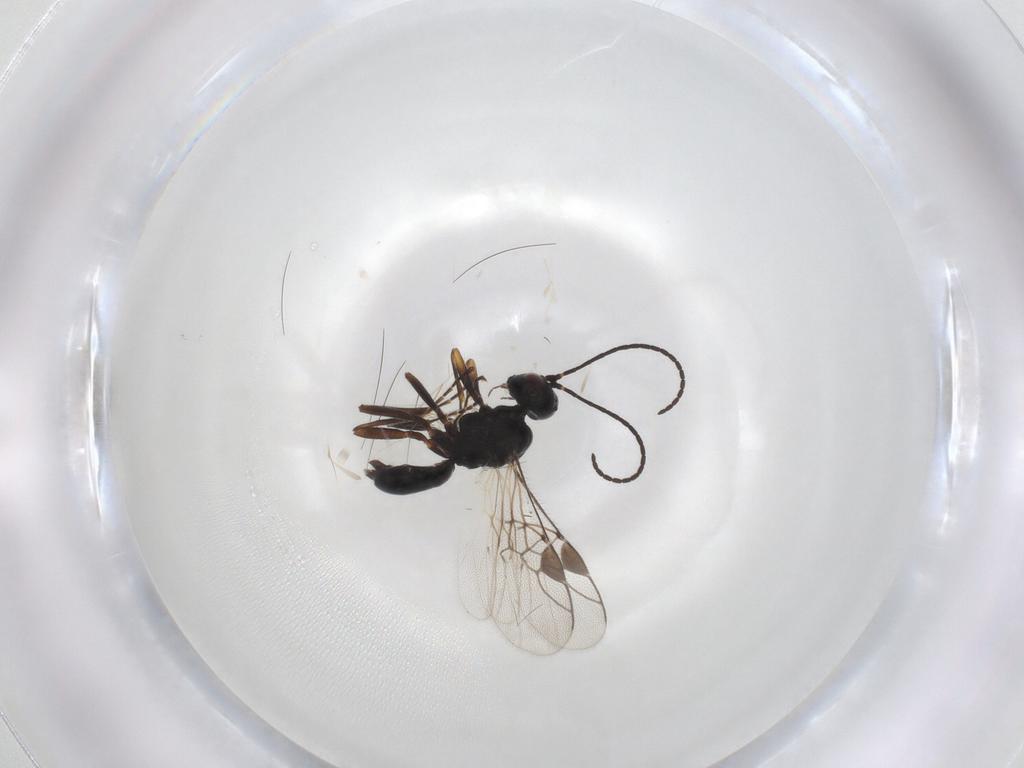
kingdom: Animalia
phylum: Arthropoda
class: Insecta
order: Hymenoptera
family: Braconidae
